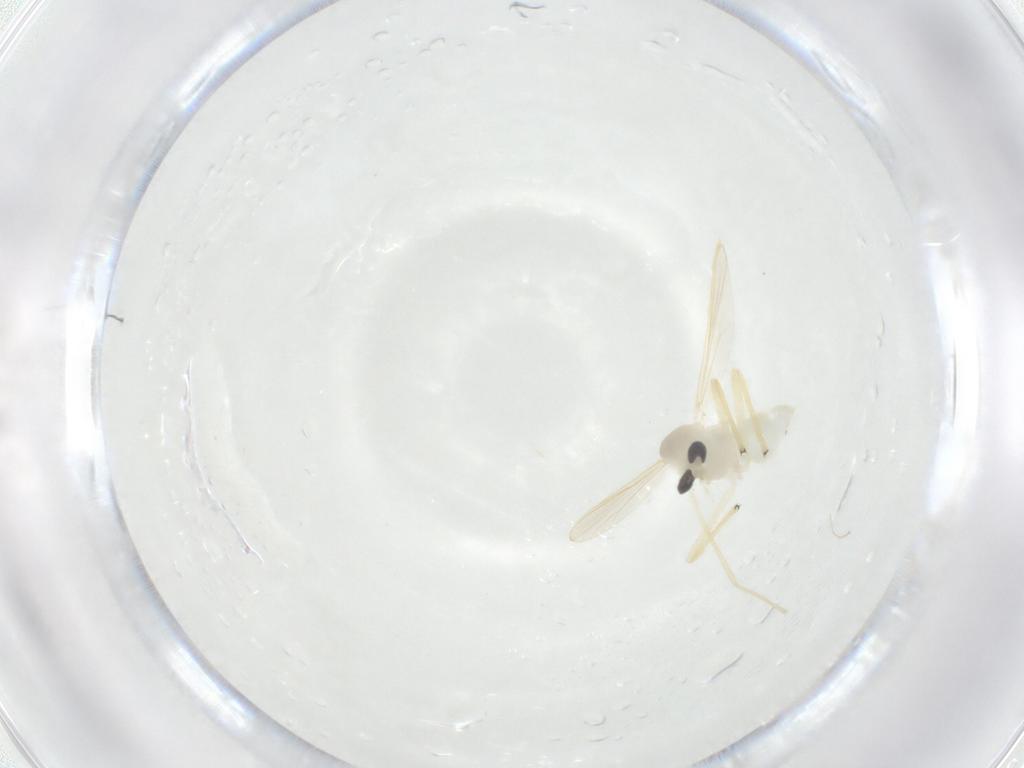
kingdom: Animalia
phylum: Arthropoda
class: Insecta
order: Diptera
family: Chironomidae
